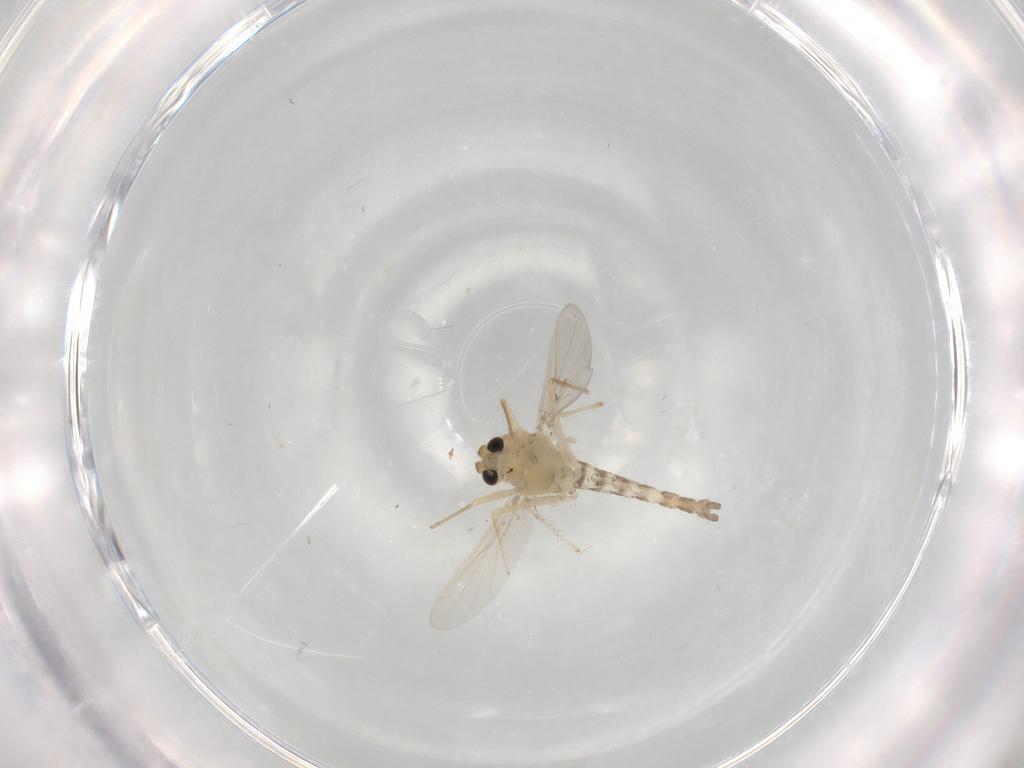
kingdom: Animalia
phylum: Arthropoda
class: Insecta
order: Diptera
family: Chironomidae
